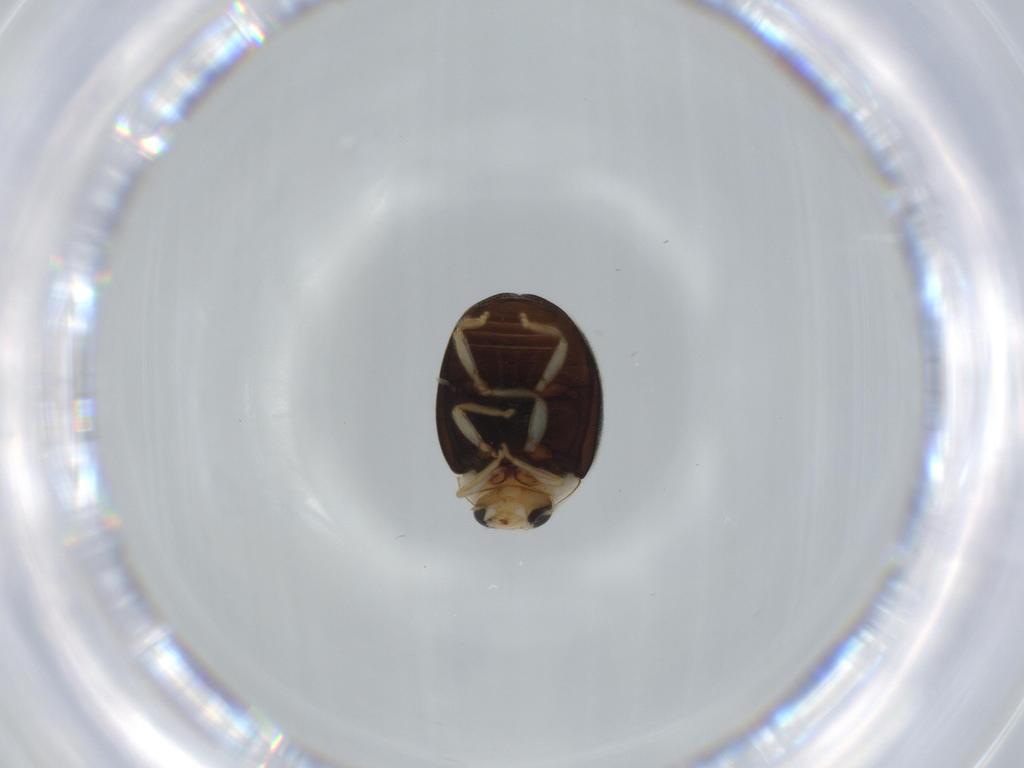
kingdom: Animalia
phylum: Arthropoda
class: Insecta
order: Coleoptera
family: Coccinellidae
